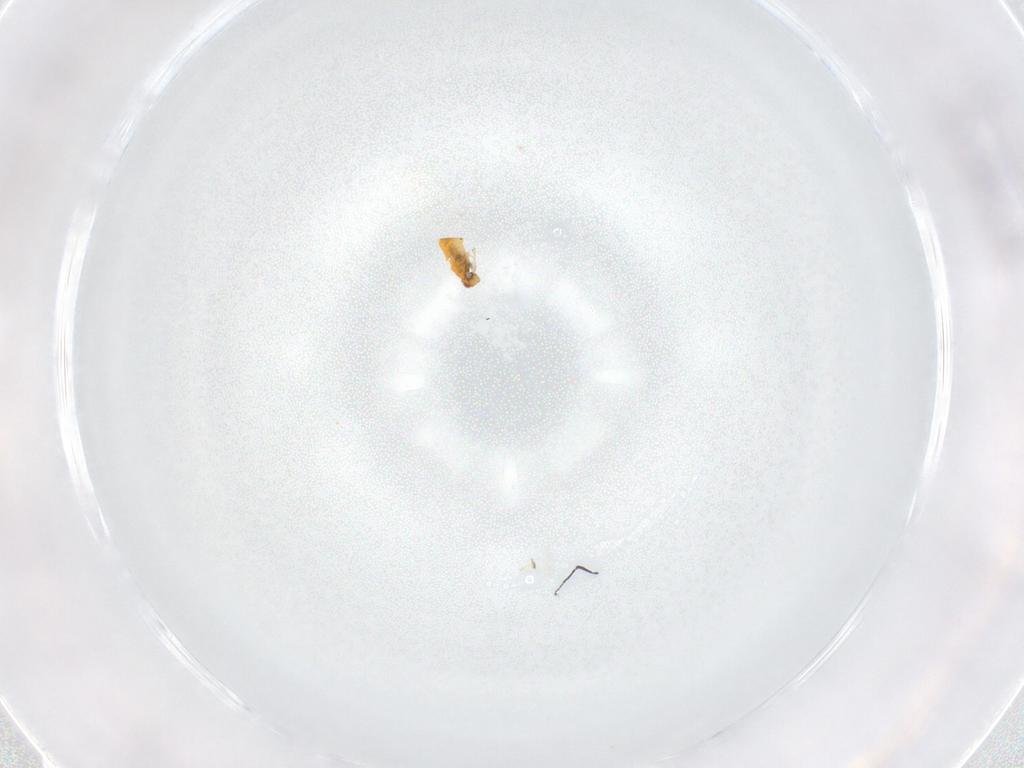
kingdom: Animalia
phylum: Arthropoda
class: Insecta
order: Hymenoptera
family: Trichogrammatidae
